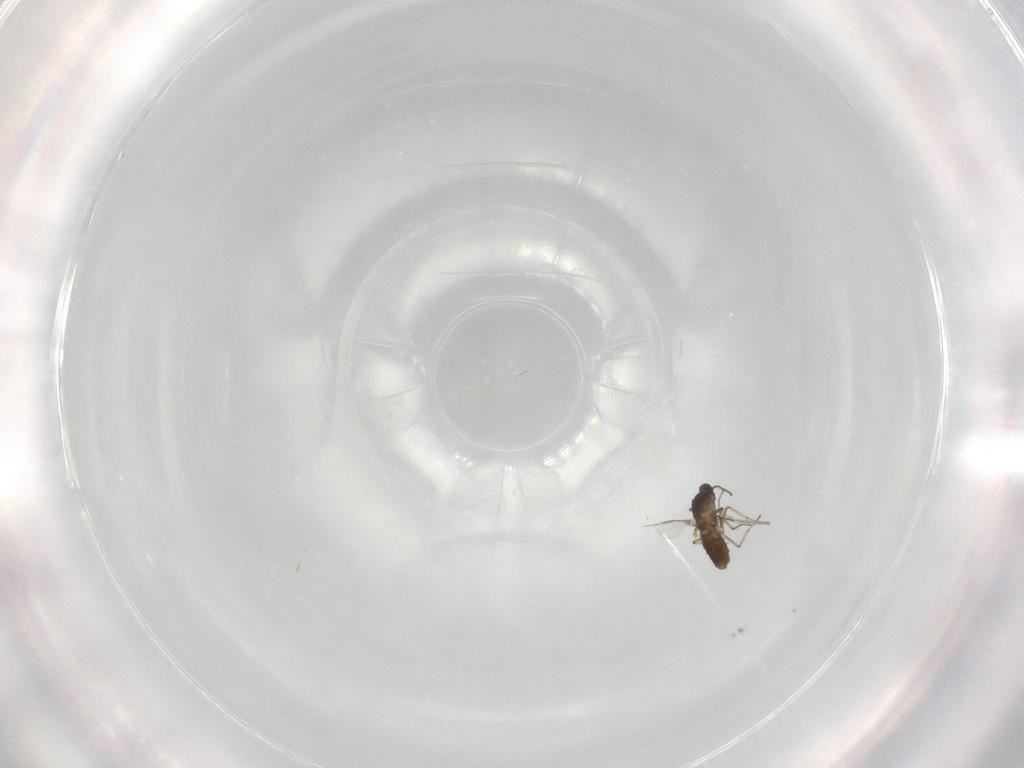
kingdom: Animalia
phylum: Arthropoda
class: Insecta
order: Diptera
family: Ceratopogonidae
